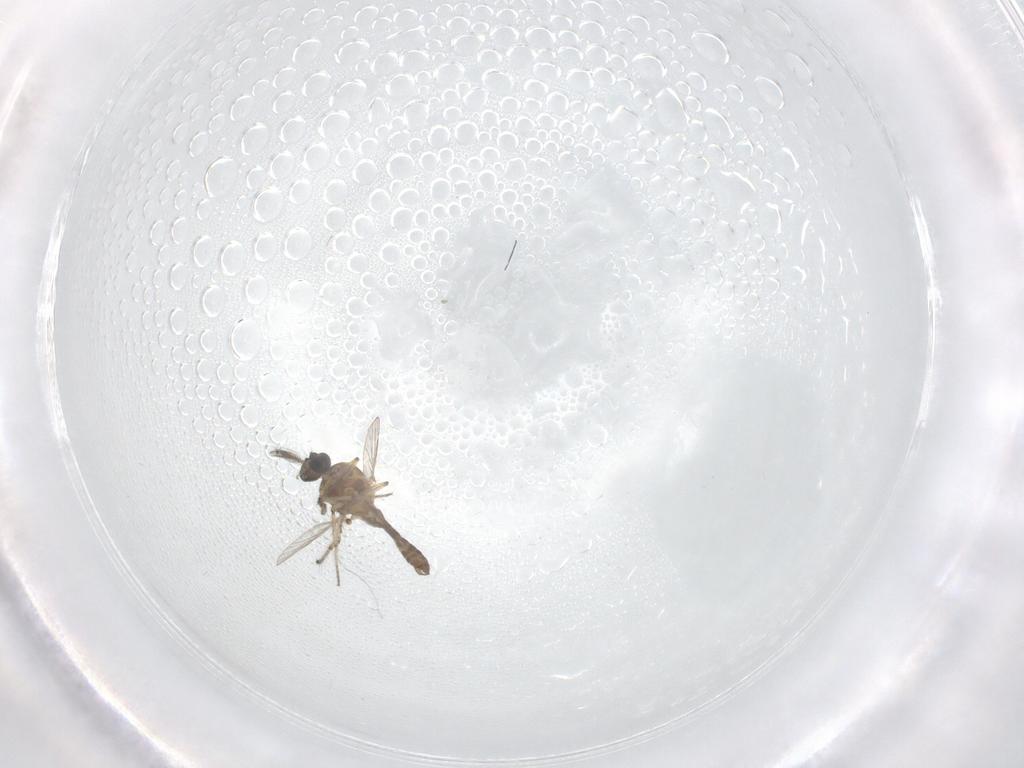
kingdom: Animalia
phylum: Arthropoda
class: Insecta
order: Diptera
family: Ceratopogonidae
